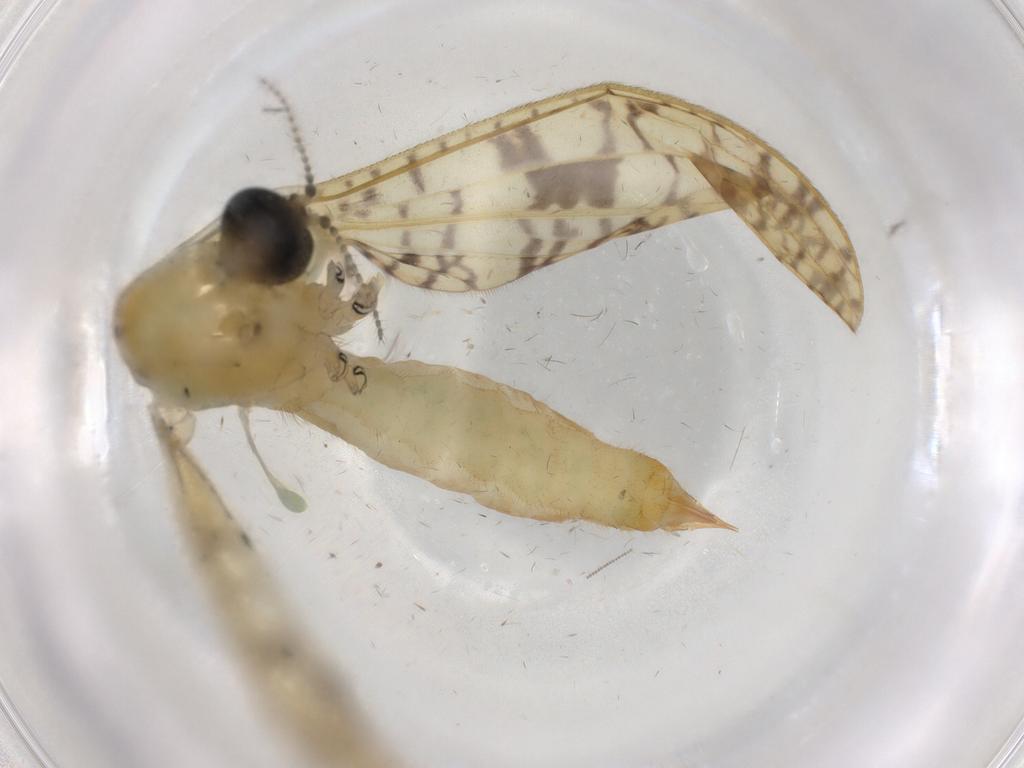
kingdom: Animalia
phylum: Arthropoda
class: Insecta
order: Diptera
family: Limoniidae
